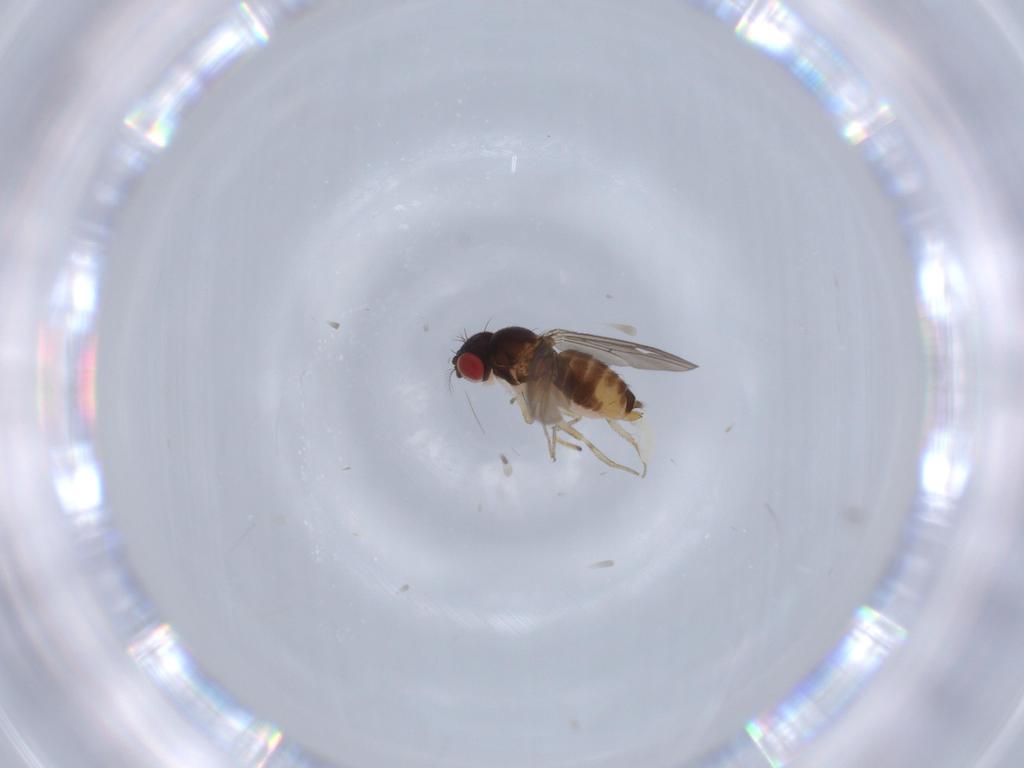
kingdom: Animalia
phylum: Arthropoda
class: Insecta
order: Diptera
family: Drosophilidae
